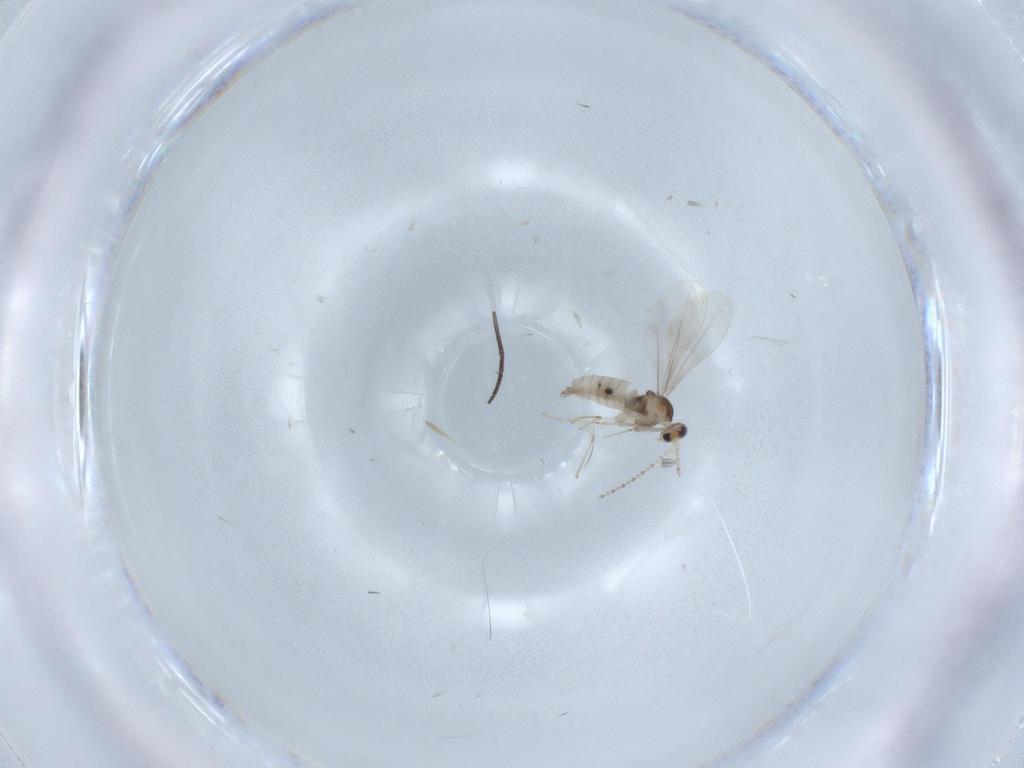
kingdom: Animalia
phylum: Arthropoda
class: Insecta
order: Diptera
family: Cecidomyiidae
